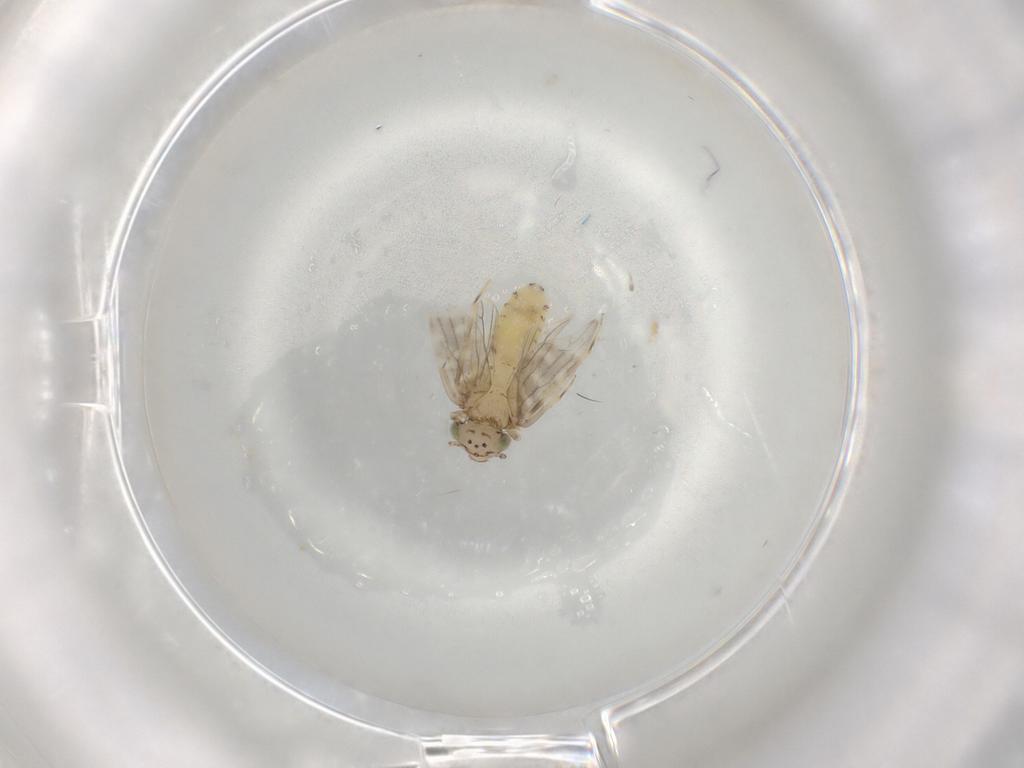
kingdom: Animalia
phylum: Arthropoda
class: Insecta
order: Psocodea
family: Lepidopsocidae
